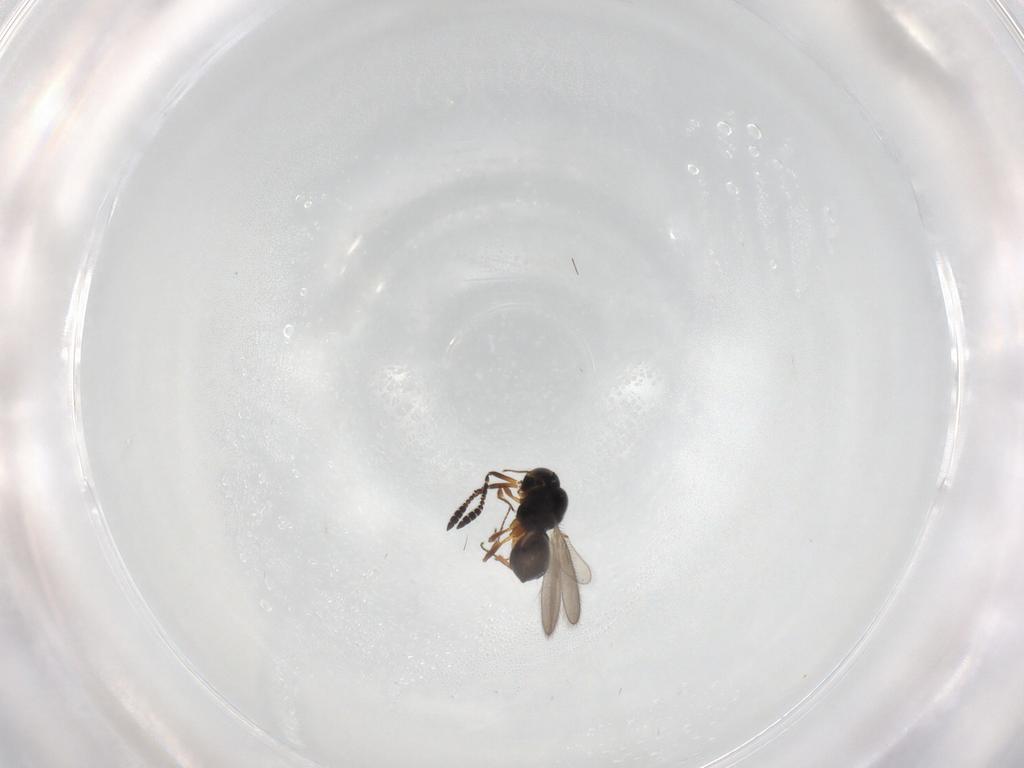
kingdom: Animalia
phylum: Arthropoda
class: Insecta
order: Hymenoptera
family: Scelionidae
